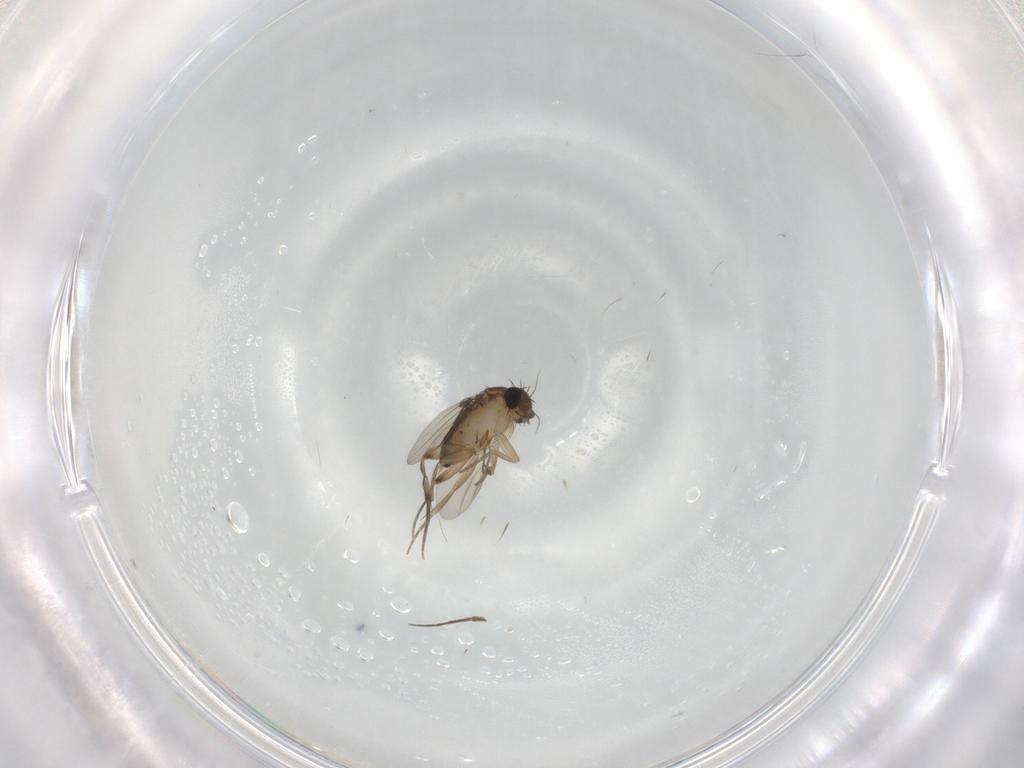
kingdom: Animalia
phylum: Arthropoda
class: Insecta
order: Diptera
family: Phoridae
